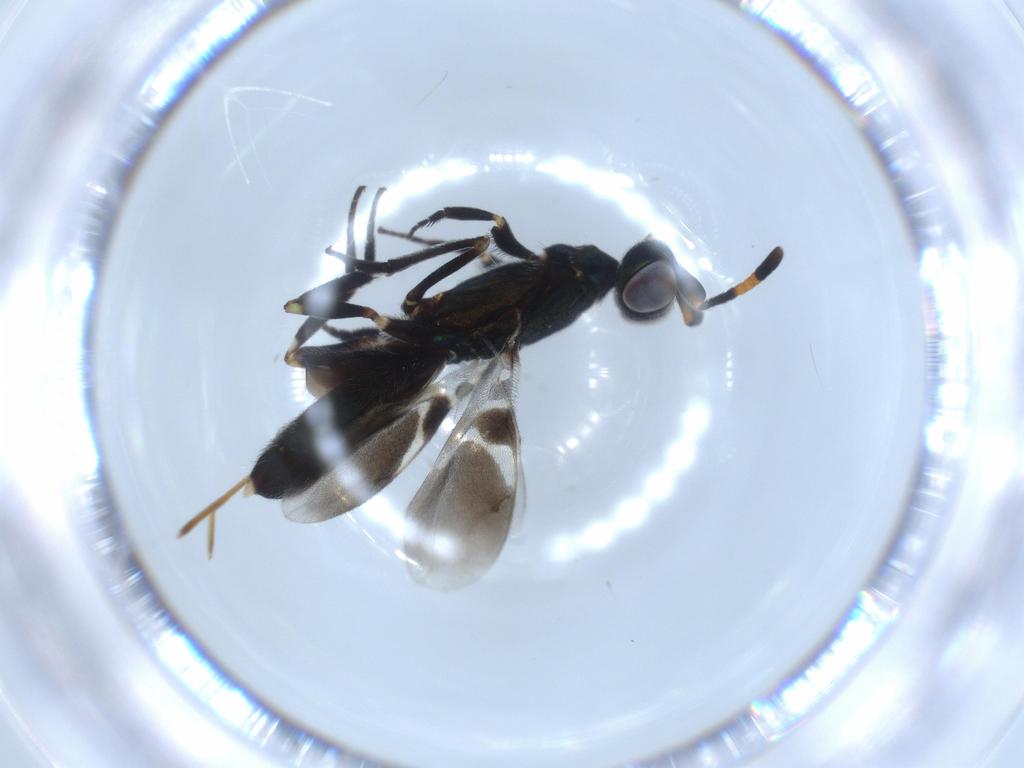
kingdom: Animalia
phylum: Arthropoda
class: Insecta
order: Hymenoptera
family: Eupelmidae
